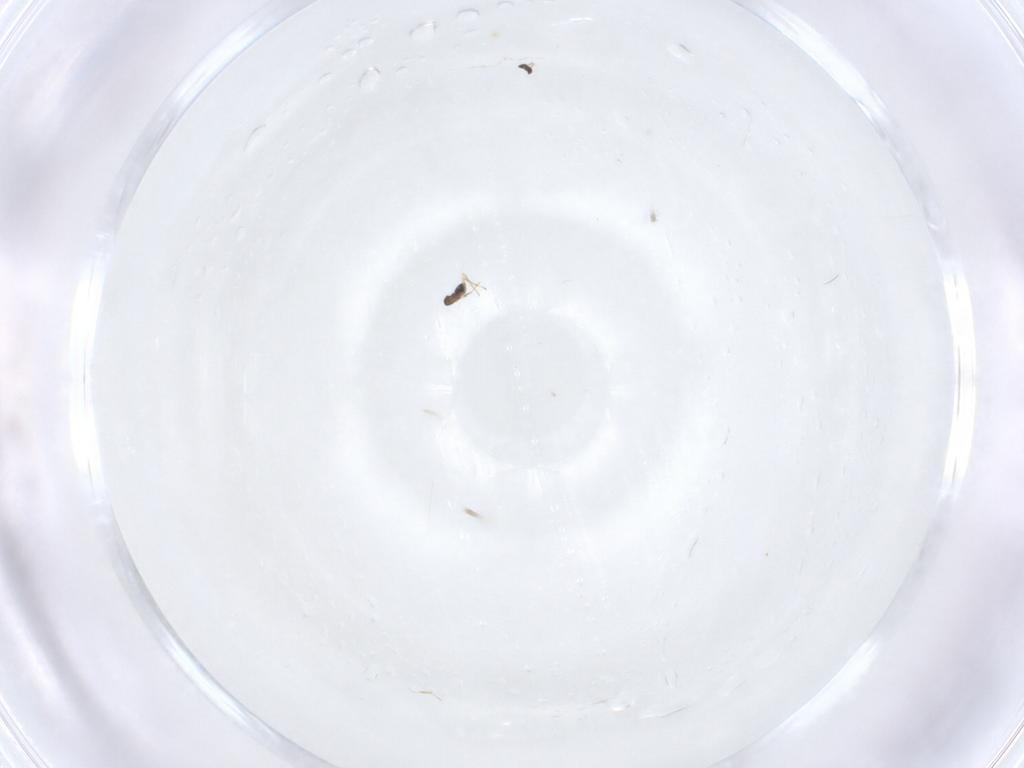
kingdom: Animalia
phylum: Arthropoda
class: Insecta
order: Hymenoptera
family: Mymaridae
